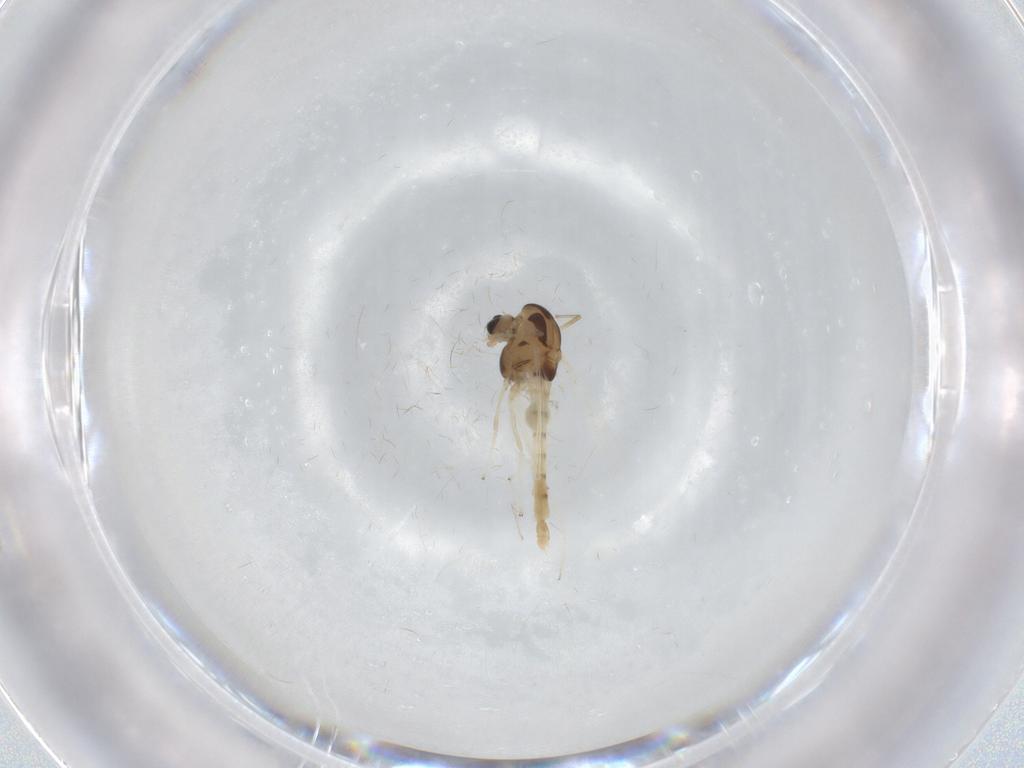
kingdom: Animalia
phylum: Arthropoda
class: Insecta
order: Diptera
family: Chironomidae
